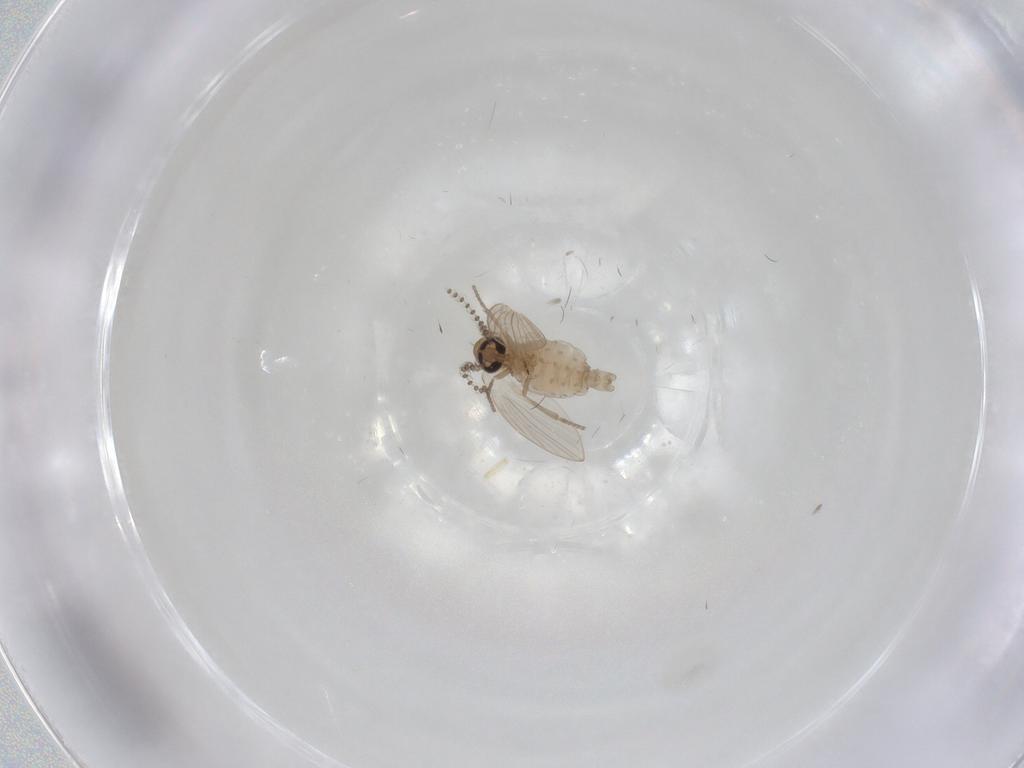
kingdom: Animalia
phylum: Arthropoda
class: Insecta
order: Diptera
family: Psychodidae
